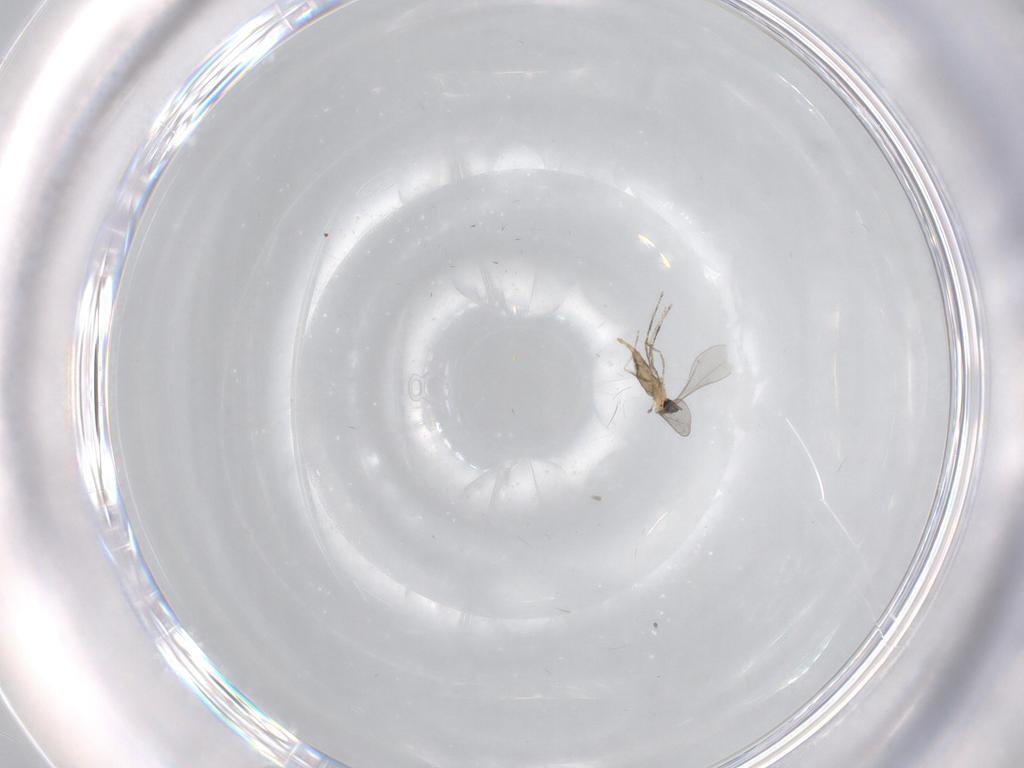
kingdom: Animalia
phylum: Arthropoda
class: Insecta
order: Diptera
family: Cecidomyiidae
